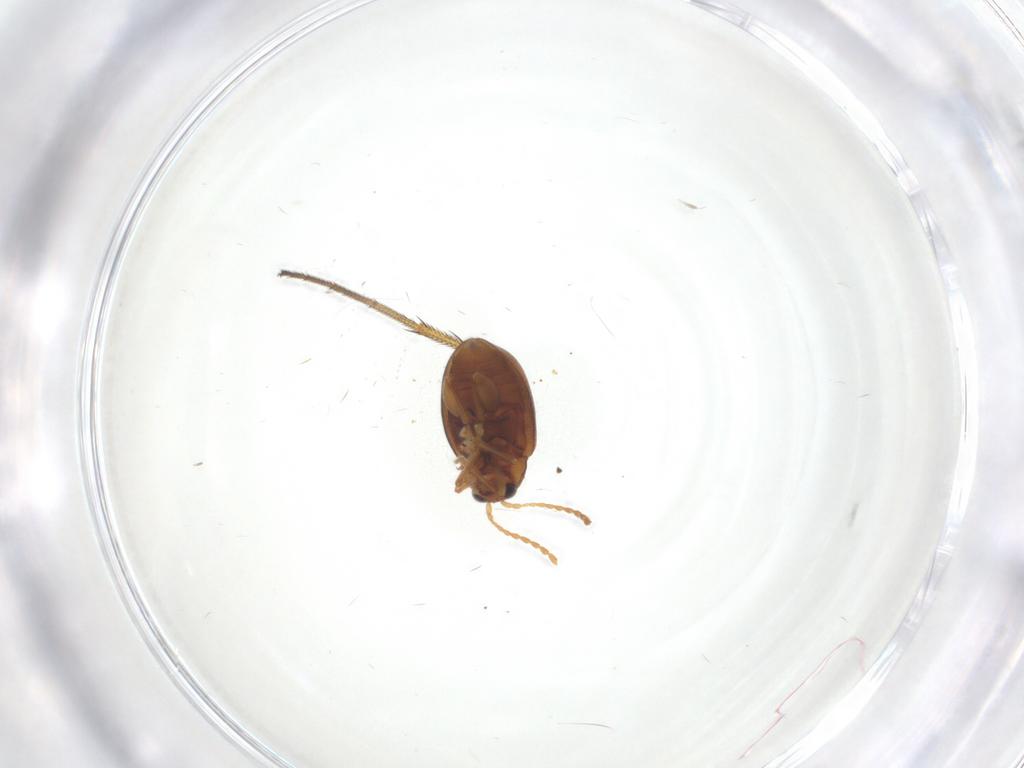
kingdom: Animalia
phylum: Arthropoda
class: Insecta
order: Coleoptera
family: Chrysomelidae
